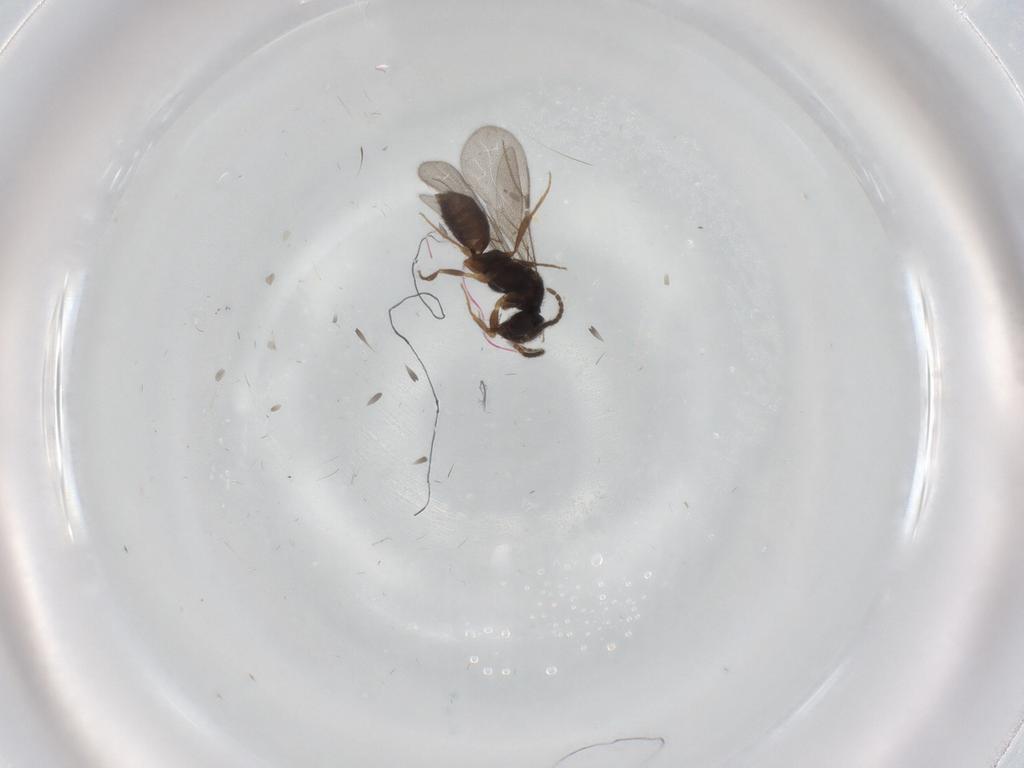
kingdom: Animalia
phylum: Arthropoda
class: Insecta
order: Hymenoptera
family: Bethylidae
